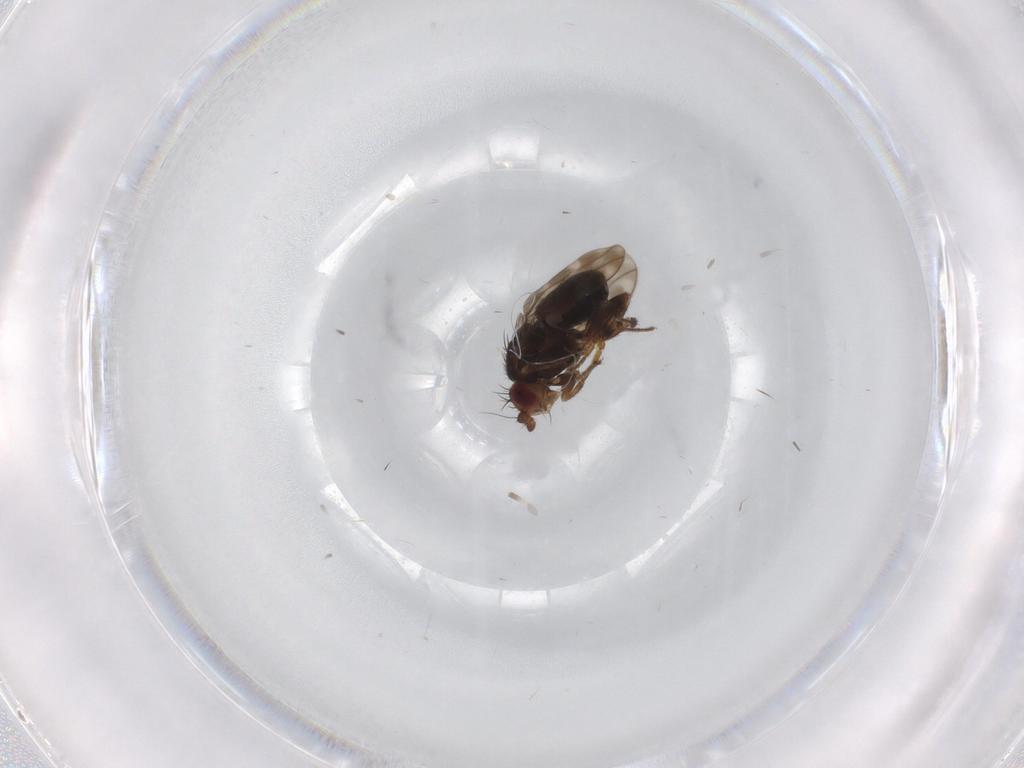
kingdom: Animalia
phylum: Arthropoda
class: Insecta
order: Diptera
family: Sphaeroceridae
